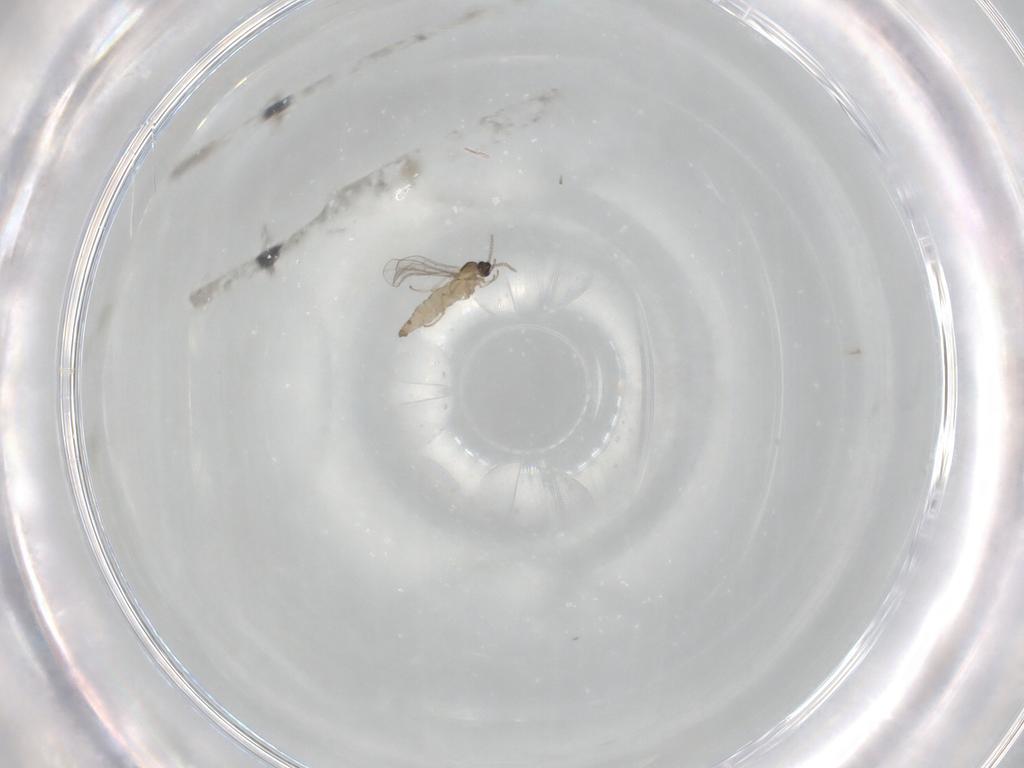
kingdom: Animalia
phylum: Arthropoda
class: Insecta
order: Diptera
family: Cecidomyiidae
